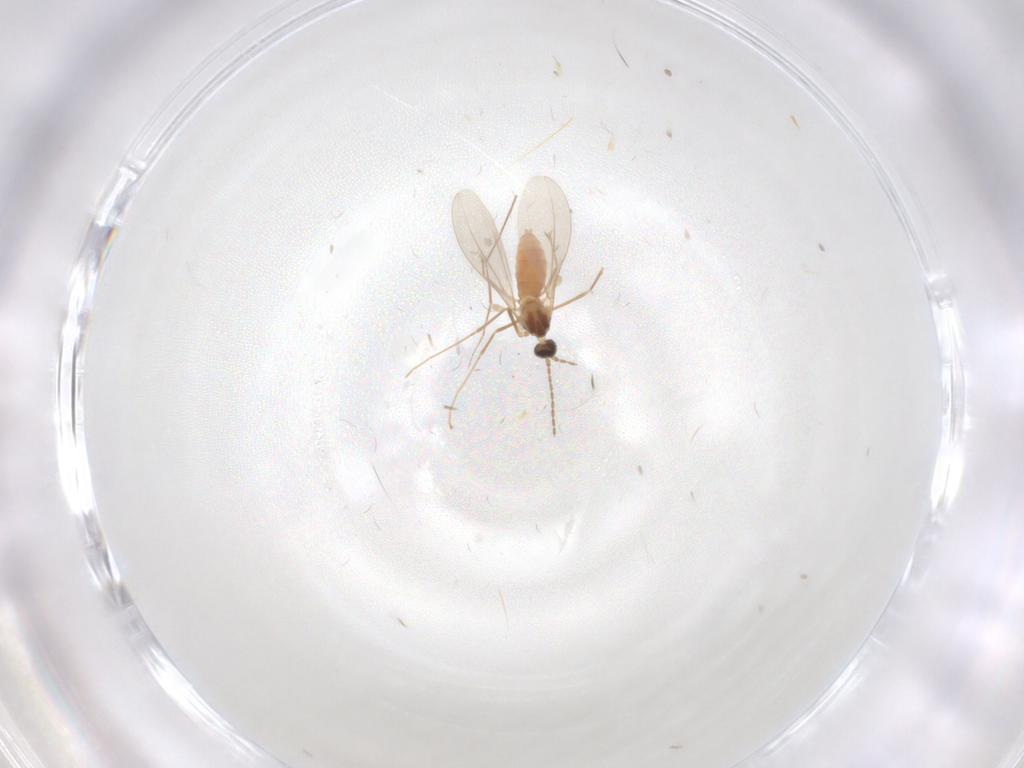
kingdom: Animalia
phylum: Arthropoda
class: Insecta
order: Diptera
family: Cecidomyiidae
